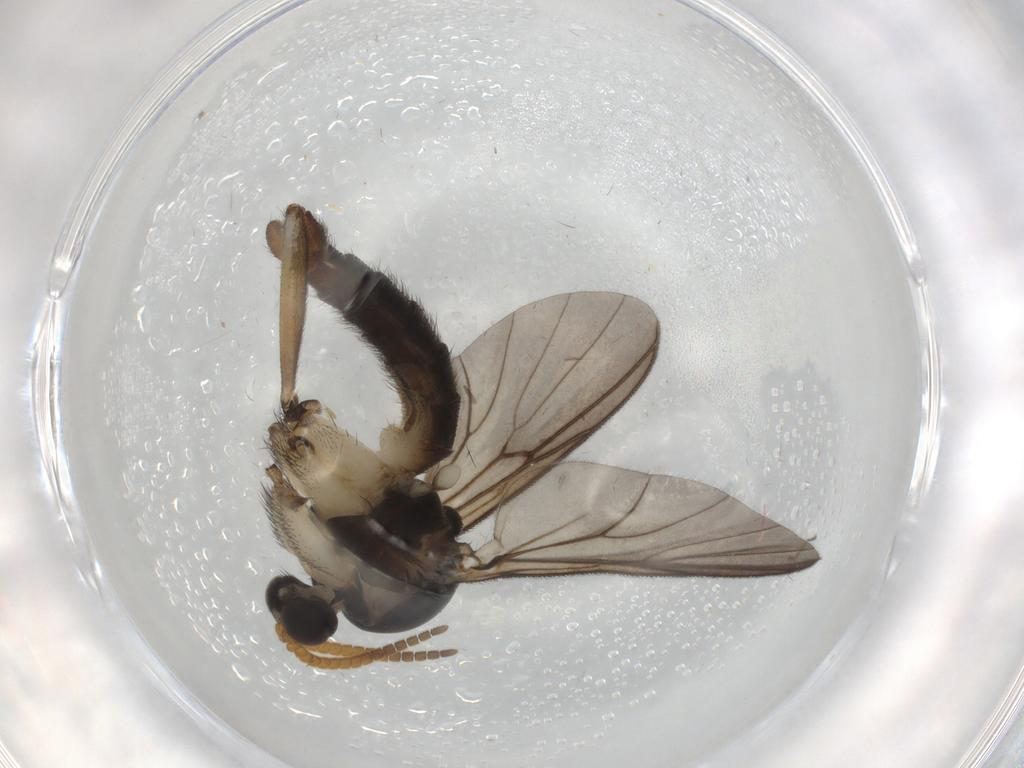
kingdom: Animalia
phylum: Arthropoda
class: Insecta
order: Diptera
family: Mycetophilidae
